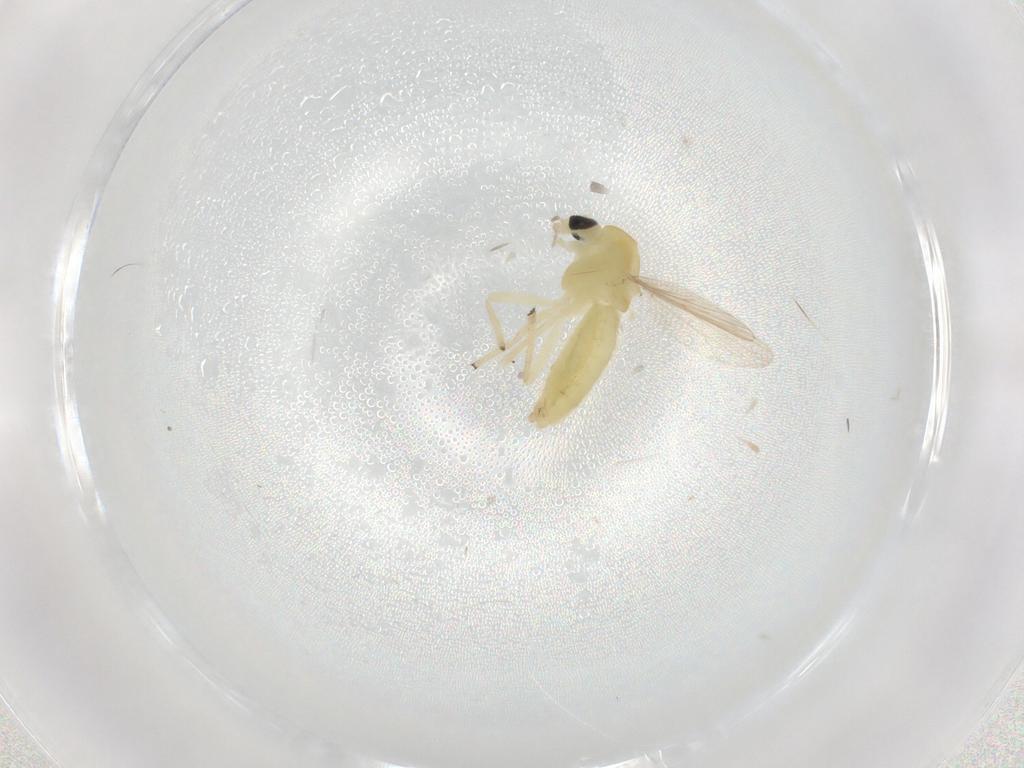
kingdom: Animalia
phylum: Arthropoda
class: Insecta
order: Diptera
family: Chironomidae
